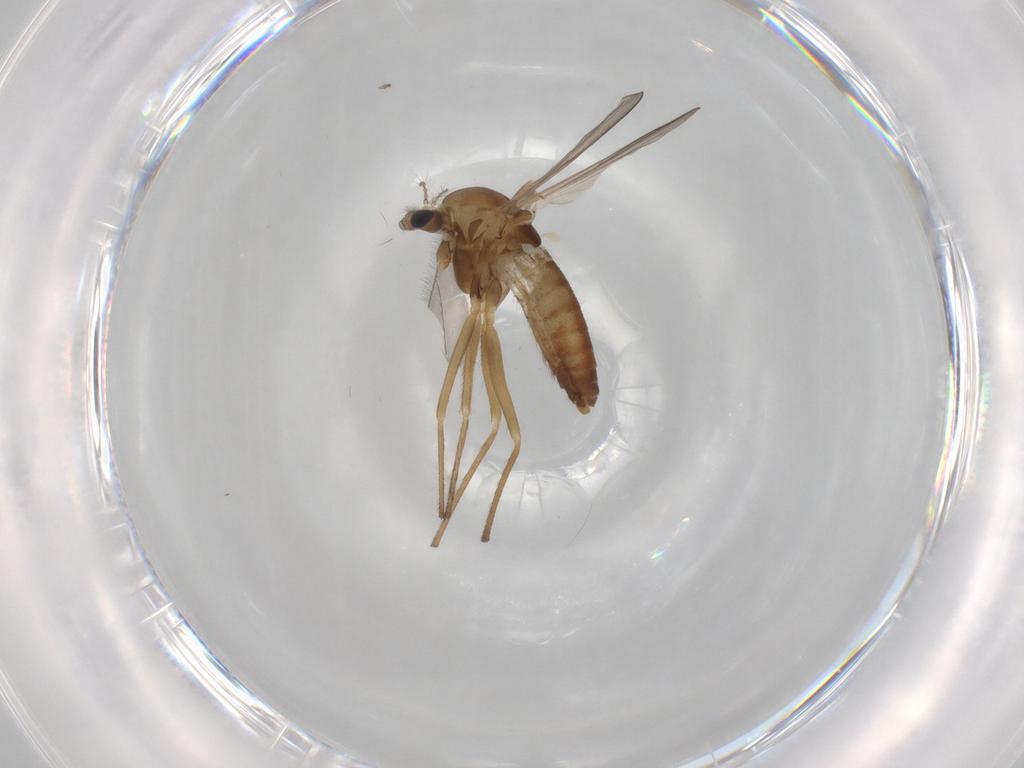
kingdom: Animalia
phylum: Arthropoda
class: Insecta
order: Diptera
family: Chironomidae
